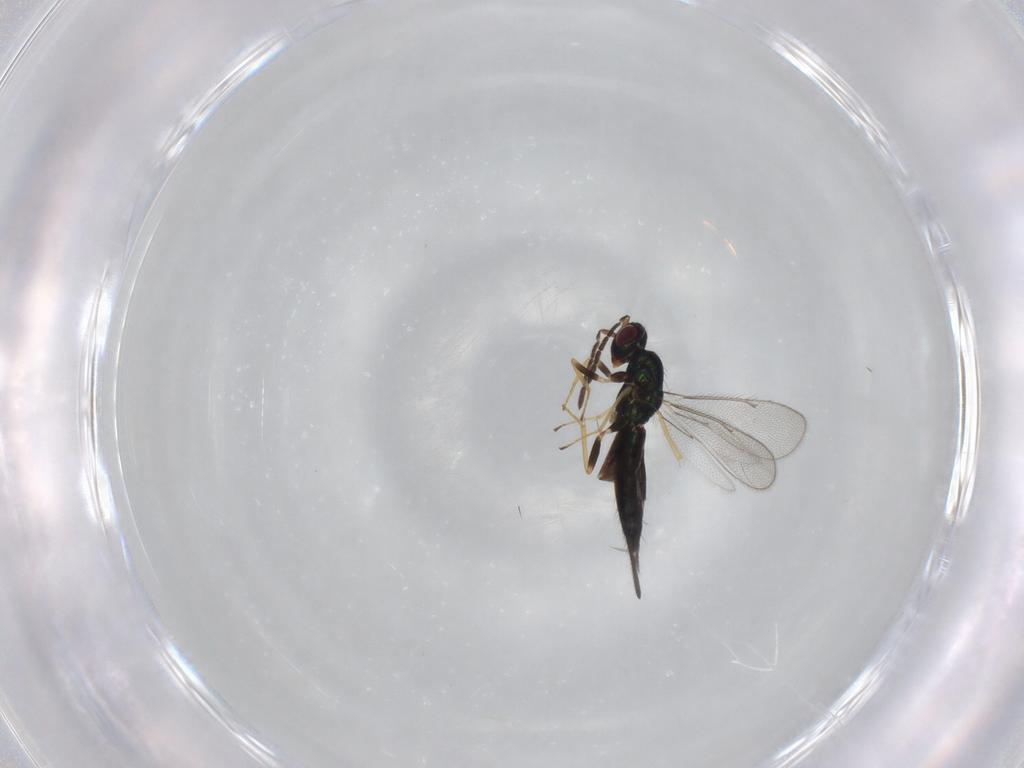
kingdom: Animalia
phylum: Arthropoda
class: Insecta
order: Hymenoptera
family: Eulophidae
